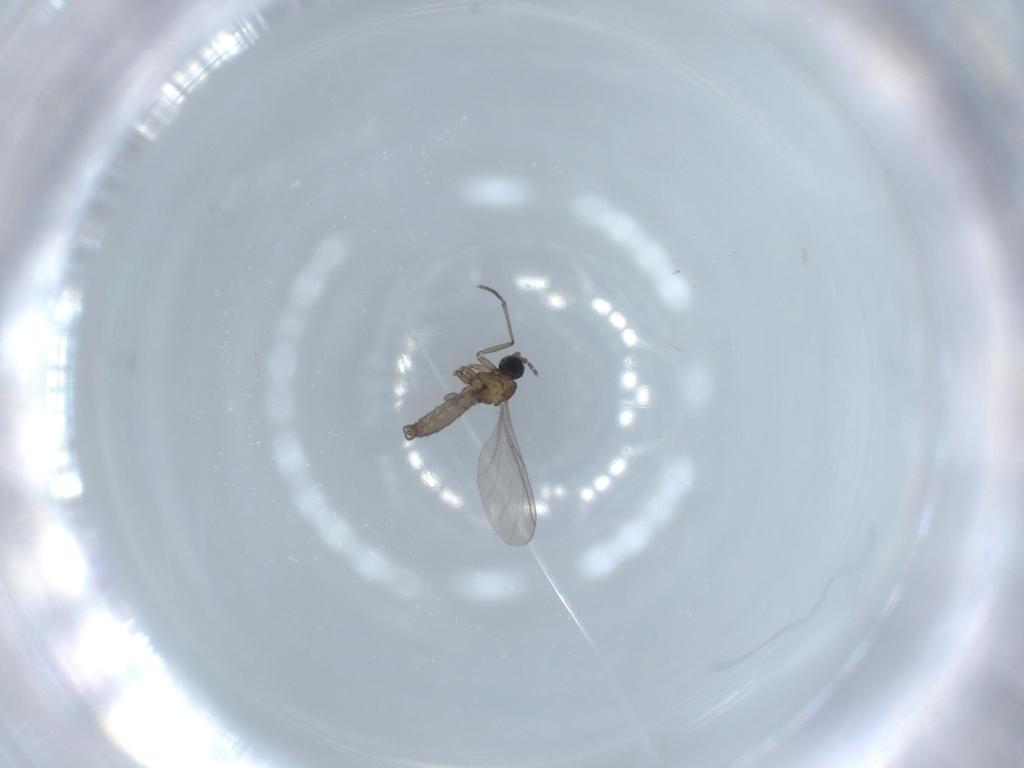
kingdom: Animalia
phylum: Arthropoda
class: Insecta
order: Diptera
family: Sciaridae
